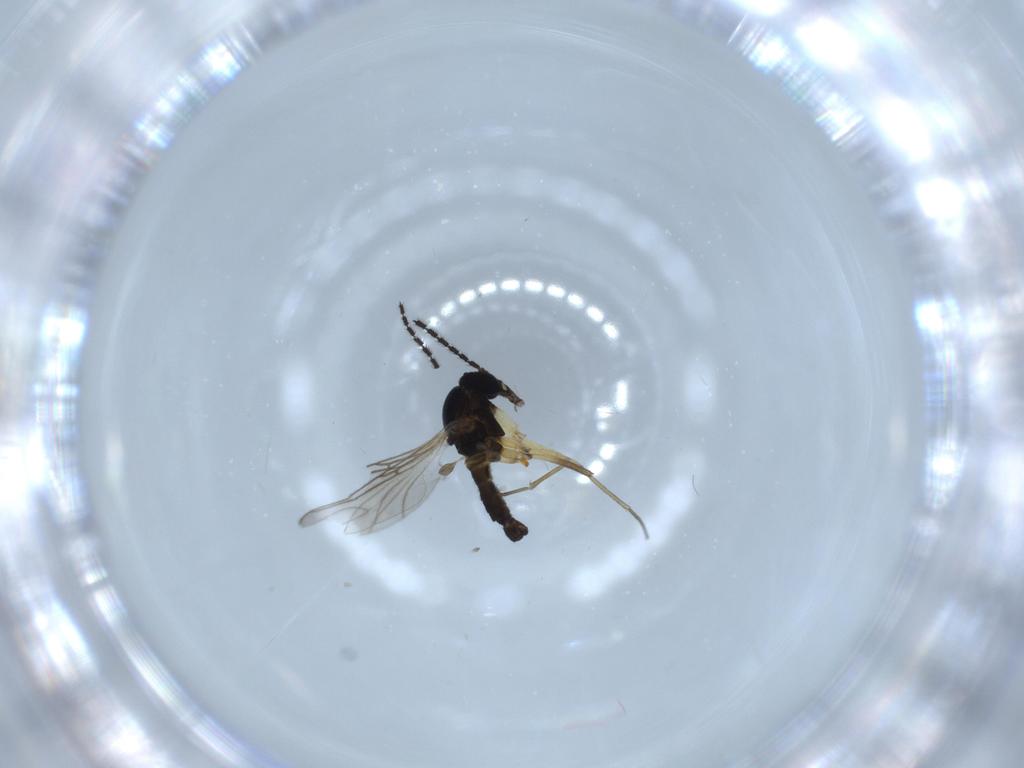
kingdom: Animalia
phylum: Arthropoda
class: Insecta
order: Diptera
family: Sciaridae
